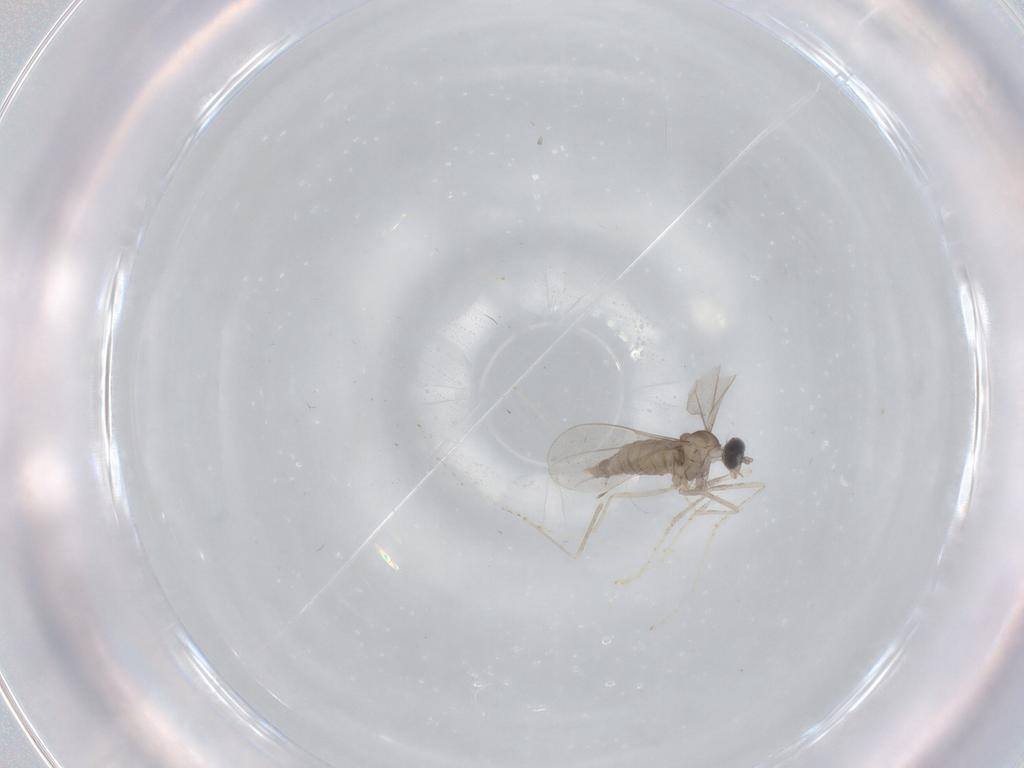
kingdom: Animalia
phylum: Arthropoda
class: Insecta
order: Diptera
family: Cecidomyiidae
